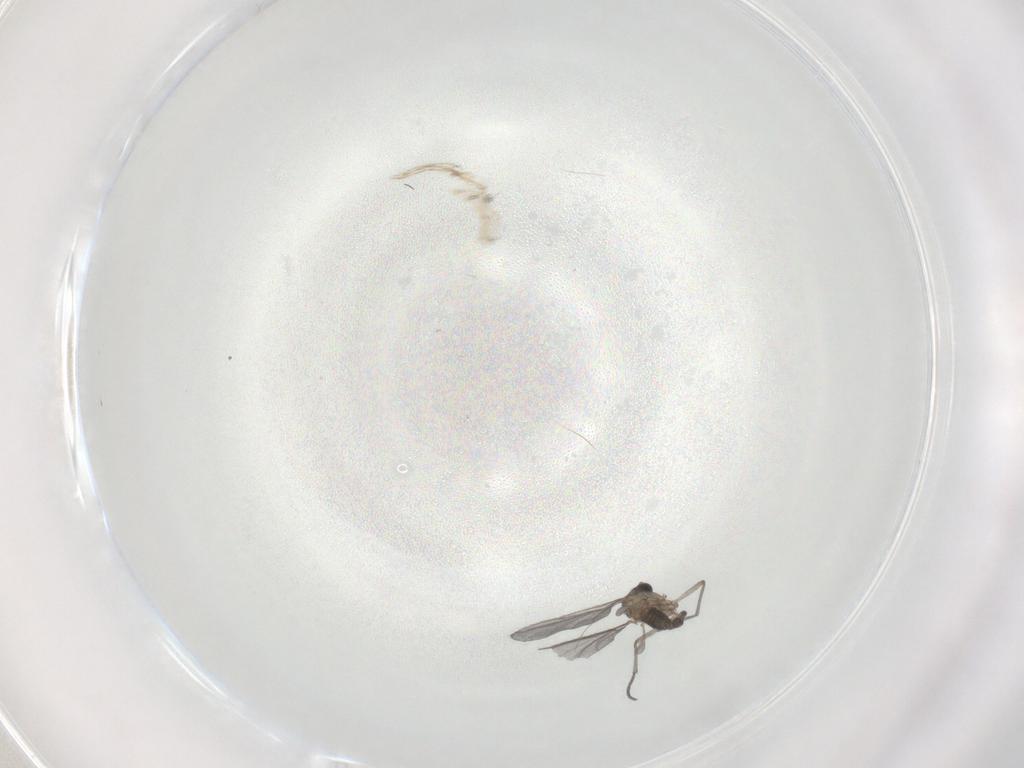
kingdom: Animalia
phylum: Arthropoda
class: Insecta
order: Diptera
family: Sciaridae
